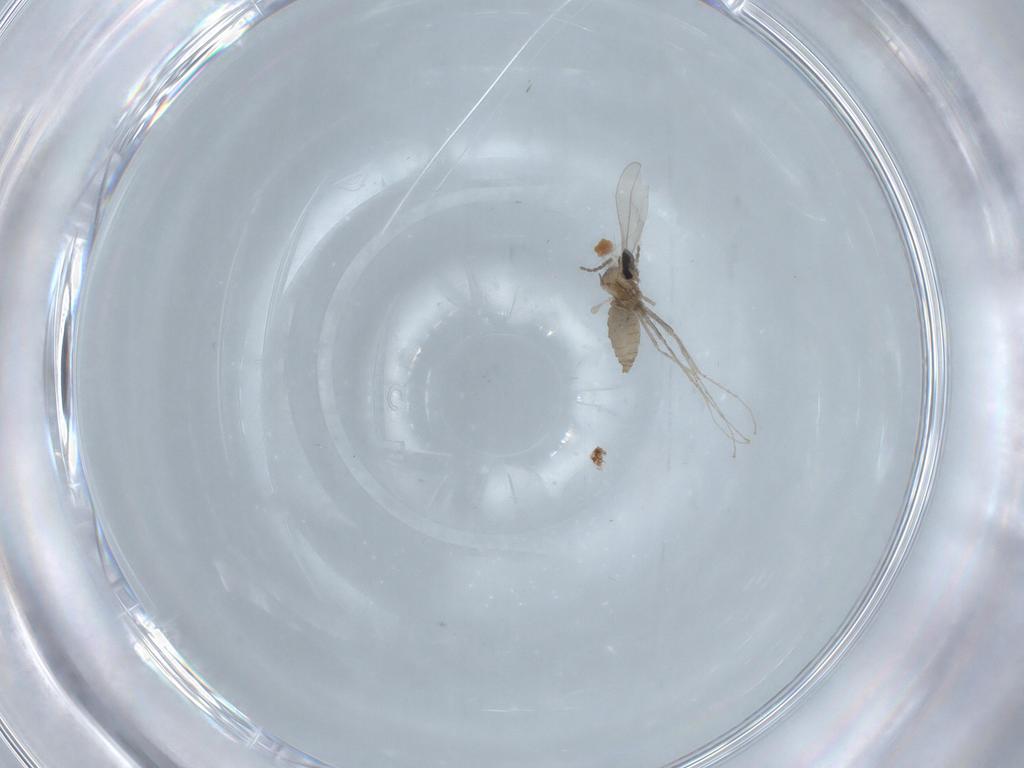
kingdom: Animalia
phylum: Arthropoda
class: Insecta
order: Diptera
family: Cecidomyiidae
